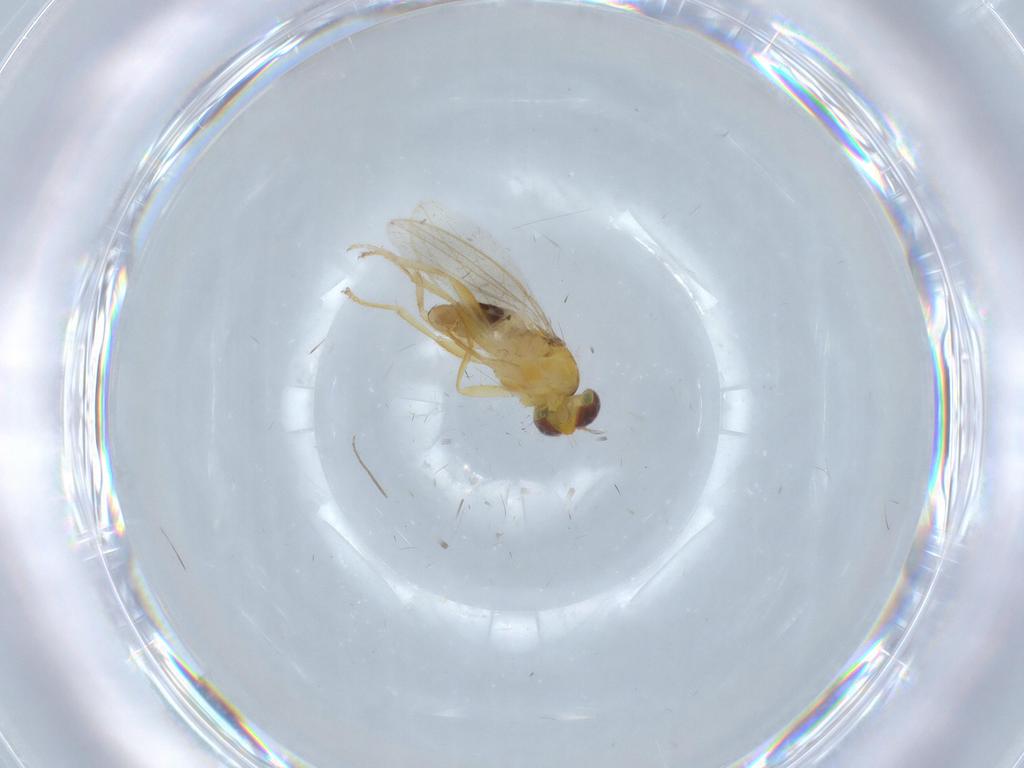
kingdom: Animalia
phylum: Arthropoda
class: Insecta
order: Diptera
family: Periscelididae
